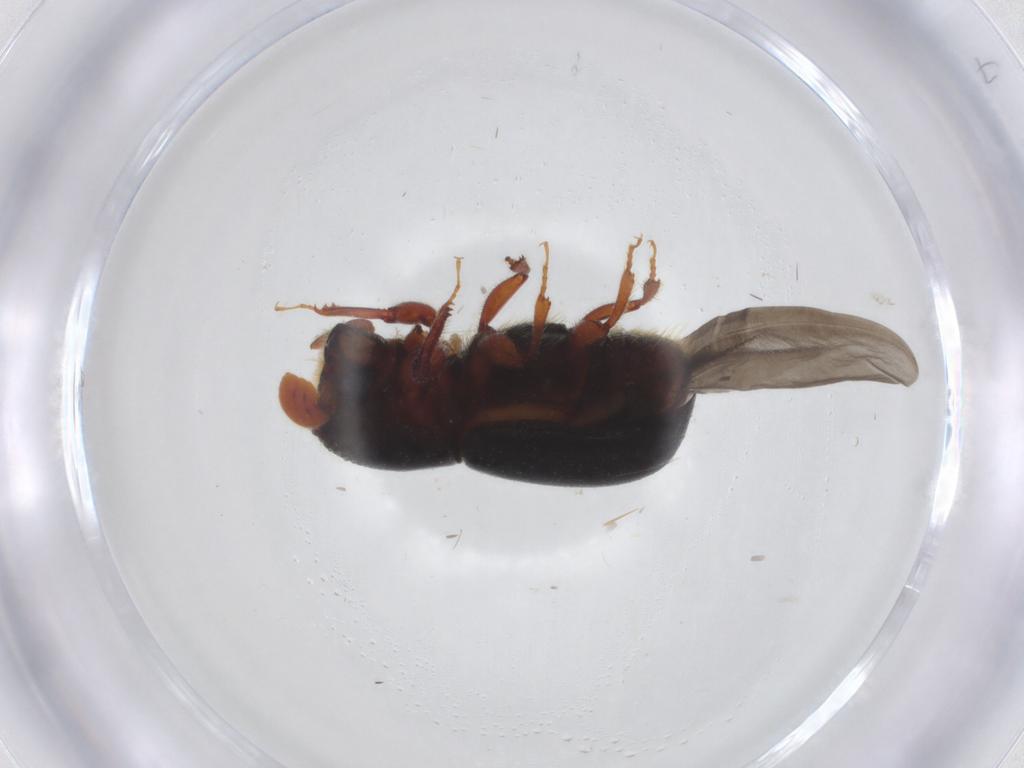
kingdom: Animalia
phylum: Arthropoda
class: Insecta
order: Coleoptera
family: Curculionidae
